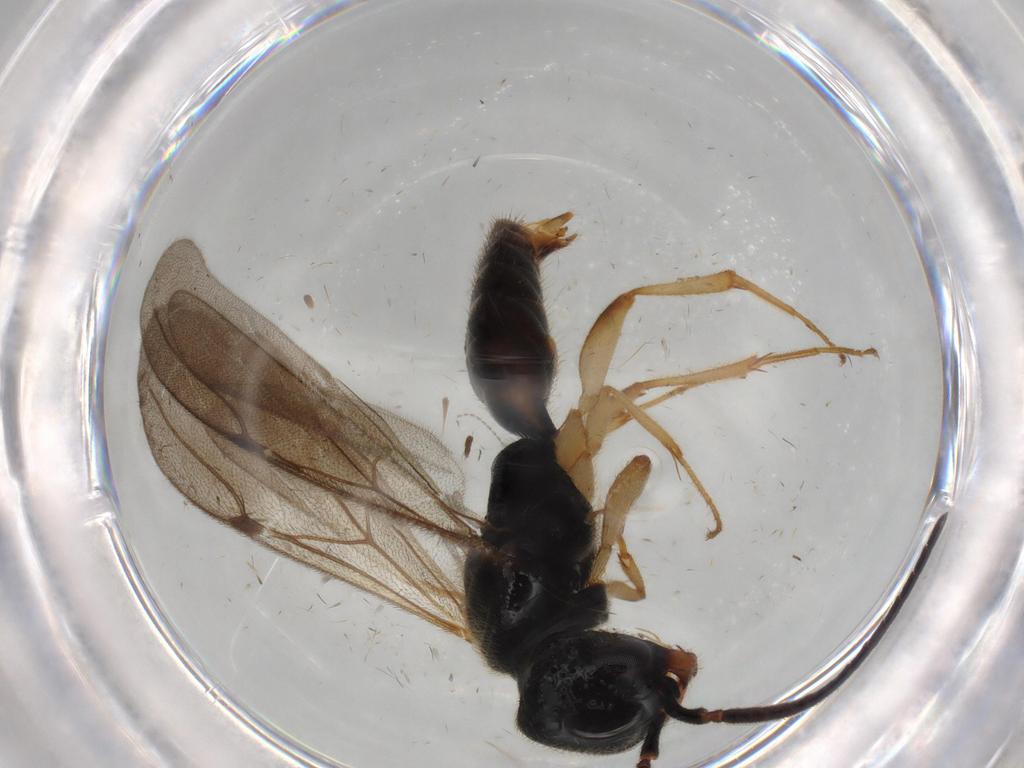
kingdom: Animalia
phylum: Arthropoda
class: Insecta
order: Hymenoptera
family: Bethylidae
